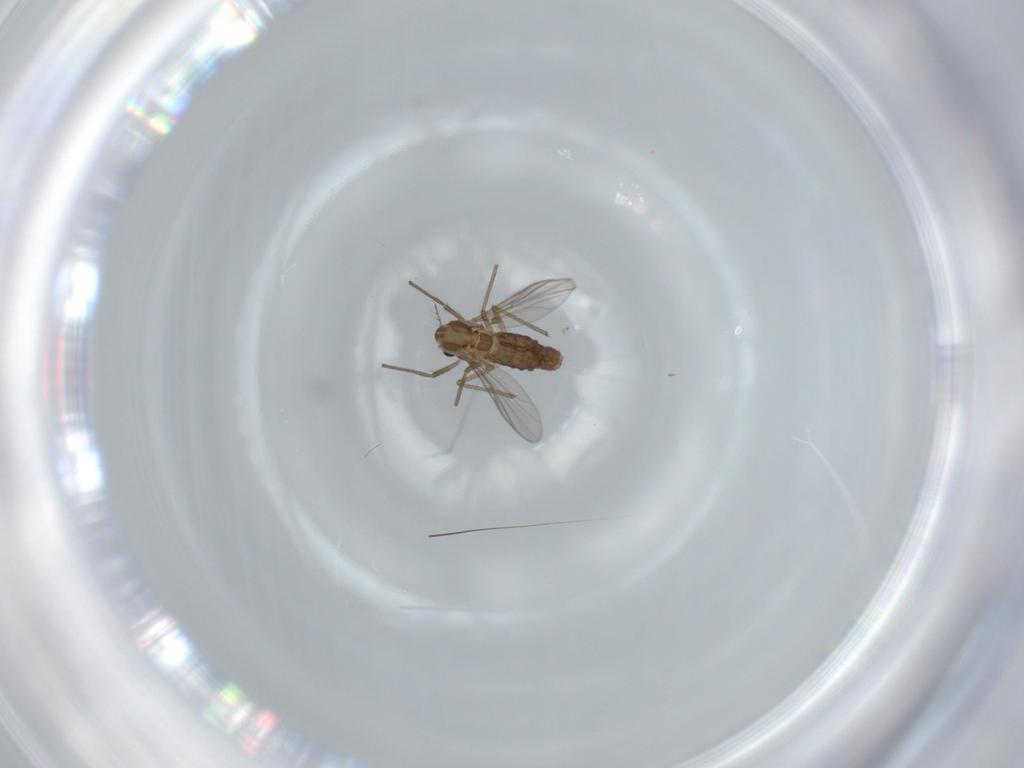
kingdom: Animalia
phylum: Arthropoda
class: Insecta
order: Diptera
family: Chironomidae
